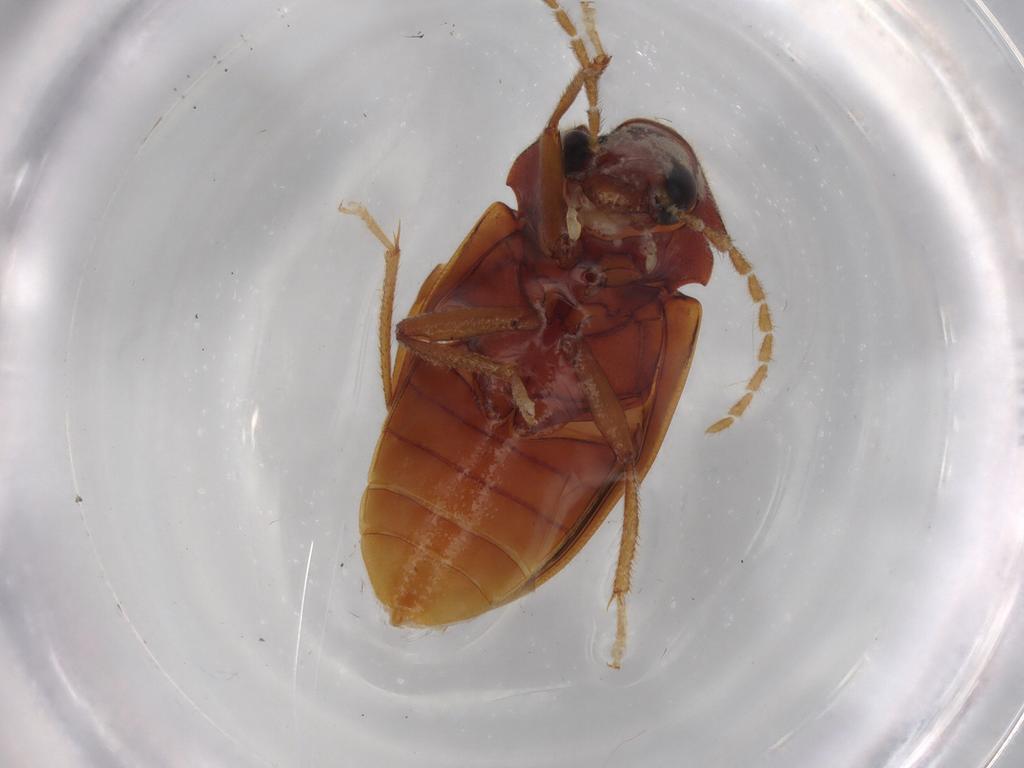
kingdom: Animalia
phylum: Arthropoda
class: Insecta
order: Coleoptera
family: Ptilodactylidae
